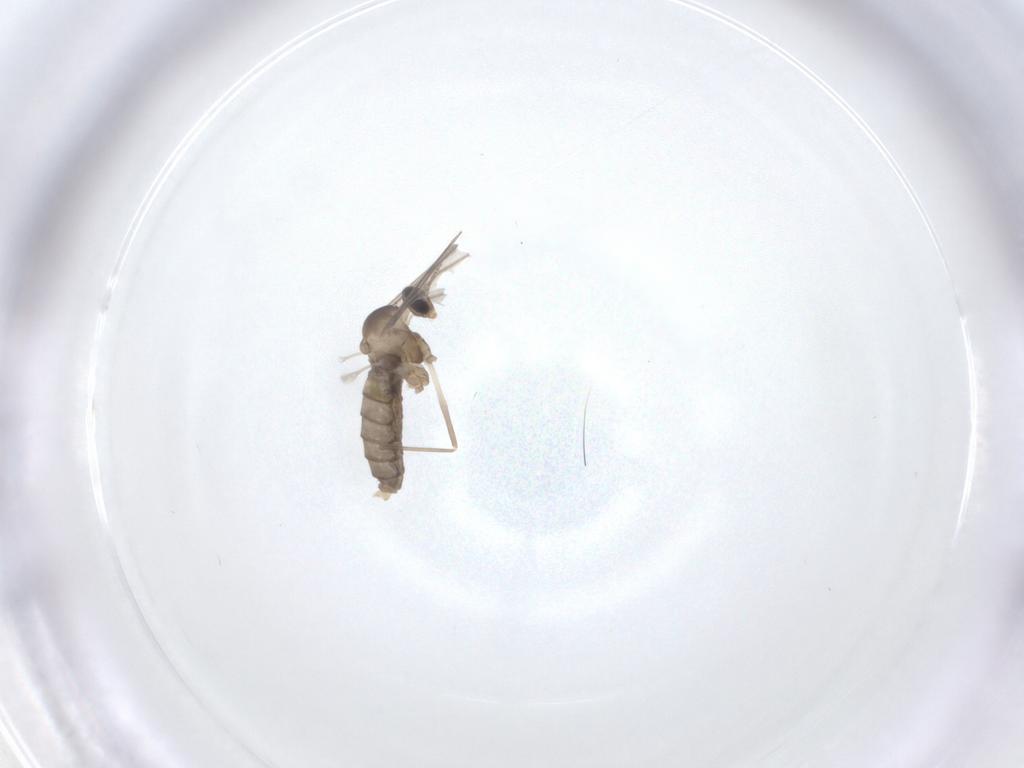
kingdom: Animalia
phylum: Arthropoda
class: Insecta
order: Diptera
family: Cecidomyiidae
